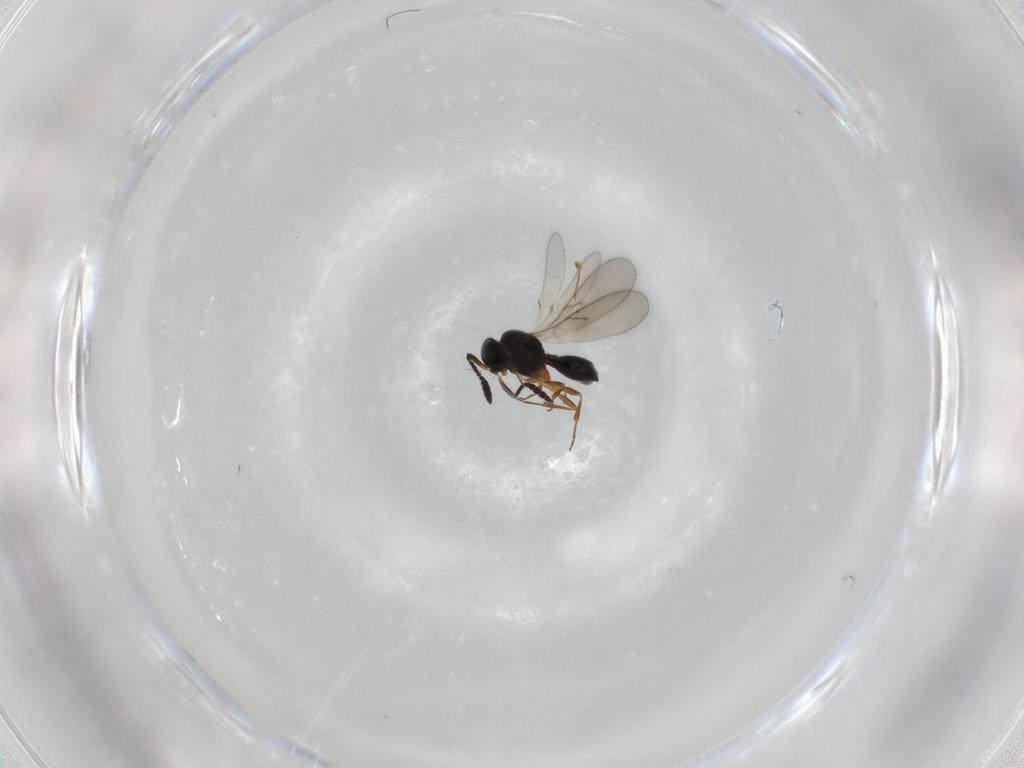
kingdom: Animalia
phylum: Arthropoda
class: Insecta
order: Hymenoptera
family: Scelionidae
